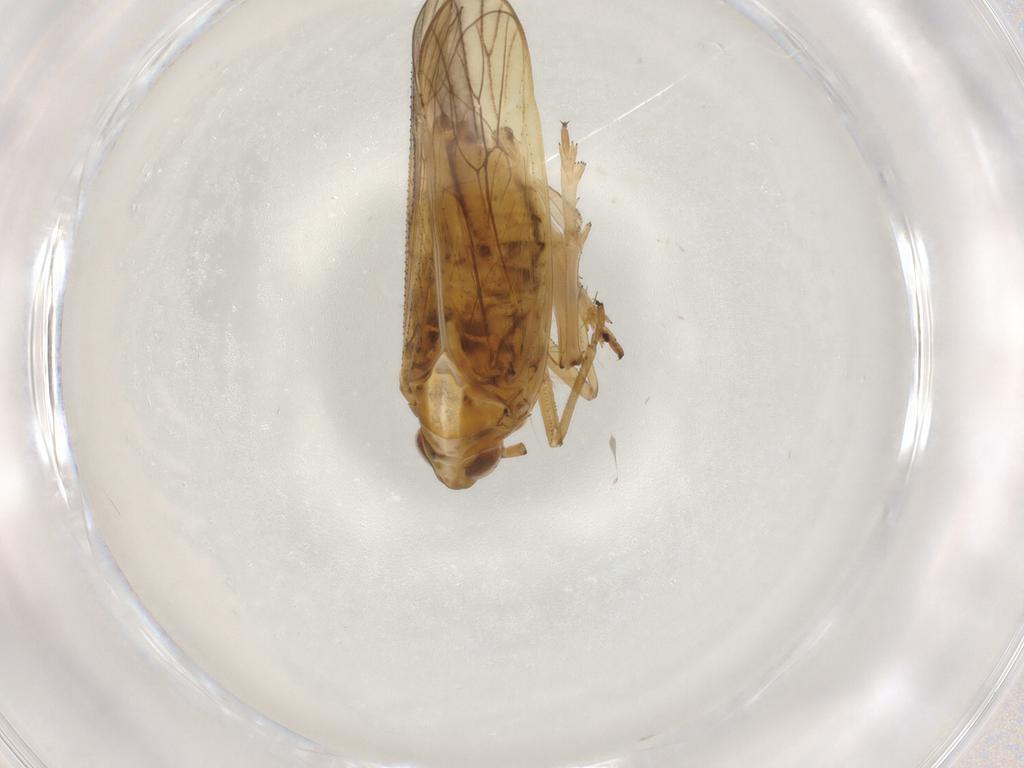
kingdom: Animalia
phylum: Arthropoda
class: Insecta
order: Hemiptera
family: Delphacidae
